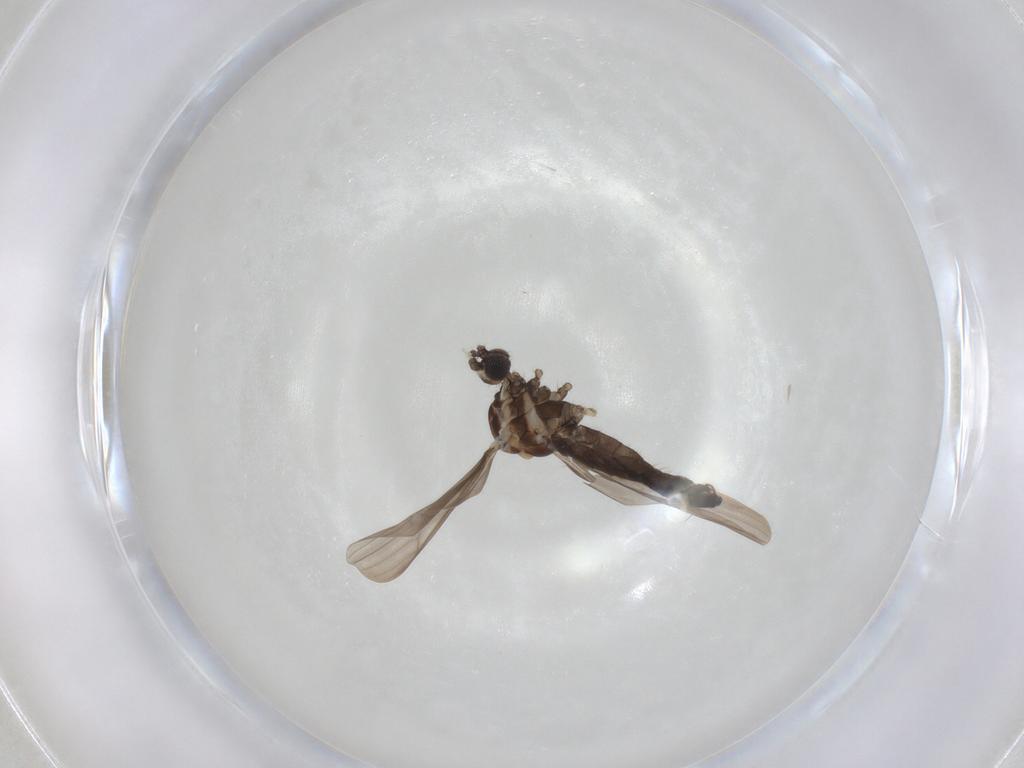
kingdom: Animalia
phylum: Arthropoda
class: Insecta
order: Diptera
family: Limoniidae
